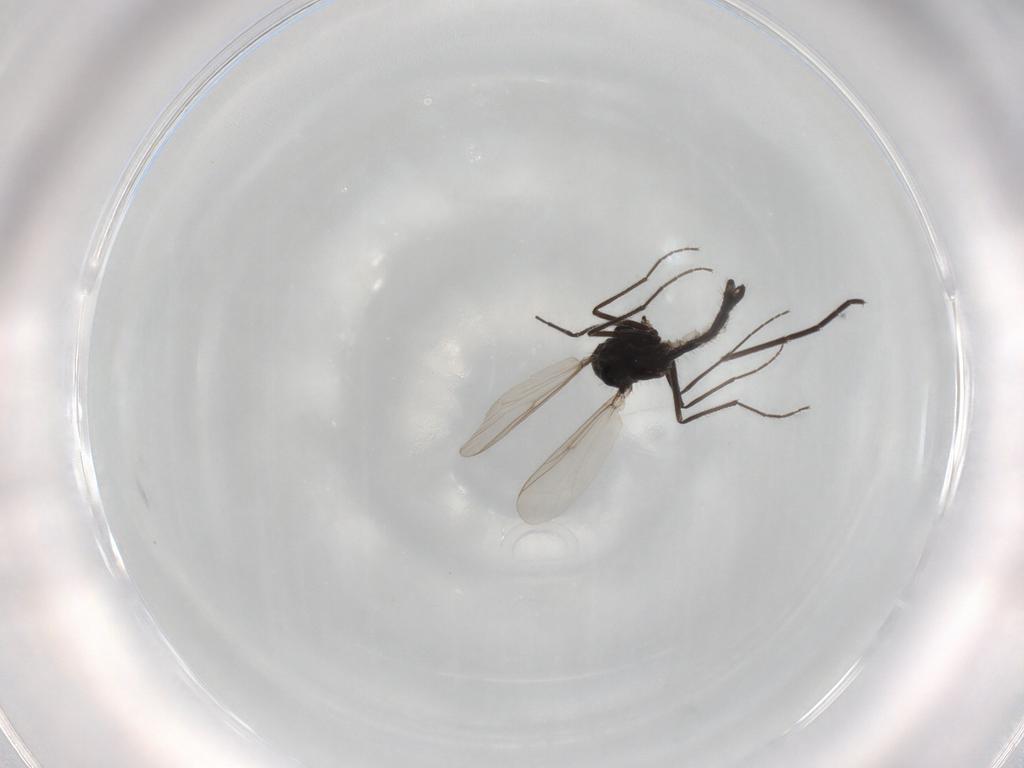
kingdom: Animalia
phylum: Arthropoda
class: Insecta
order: Diptera
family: Chironomidae
